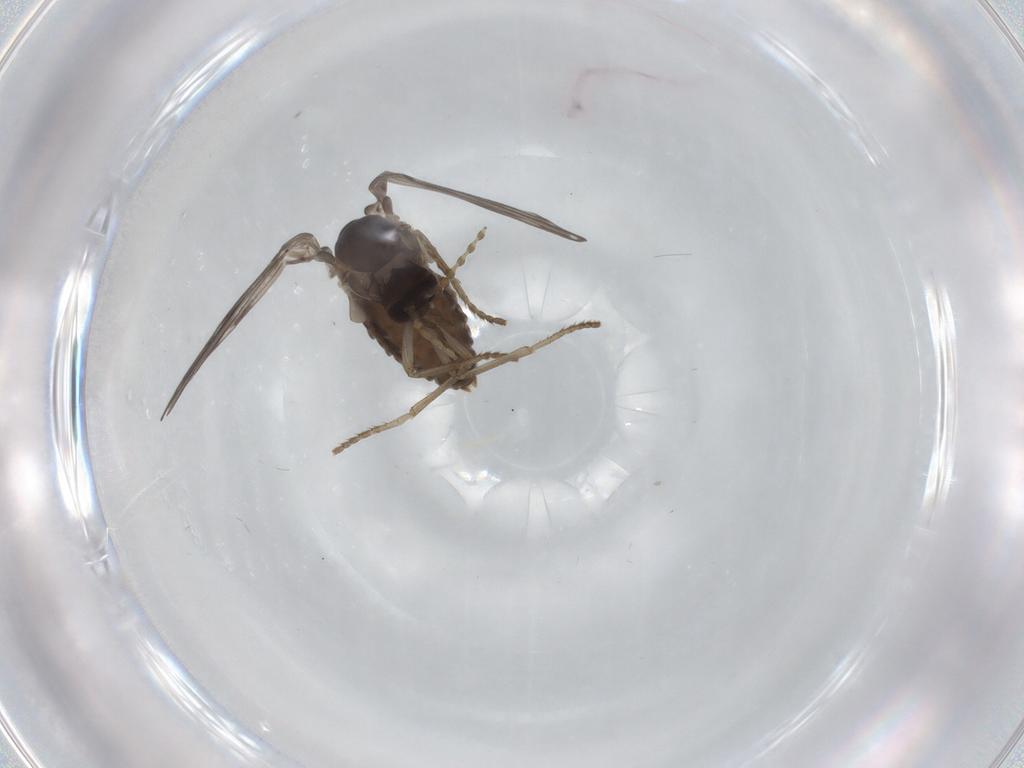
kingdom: Animalia
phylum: Arthropoda
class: Insecta
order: Diptera
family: Psychodidae
